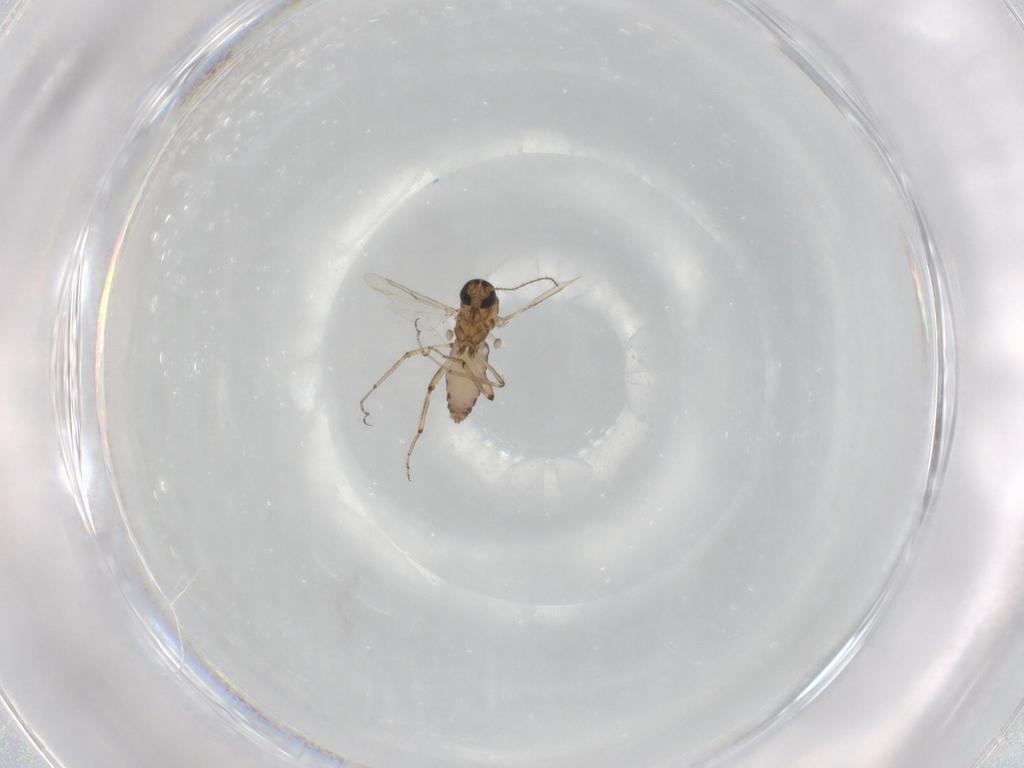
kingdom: Animalia
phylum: Arthropoda
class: Insecta
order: Diptera
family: Ceratopogonidae
